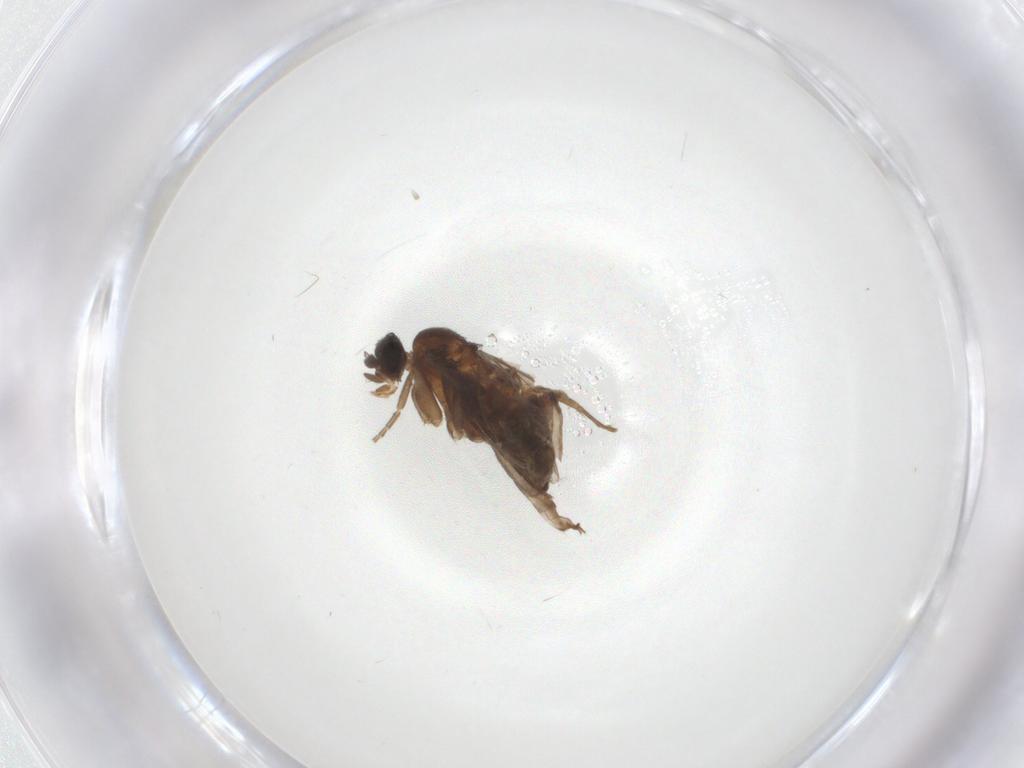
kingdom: Animalia
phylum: Arthropoda
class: Insecta
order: Diptera
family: Phoridae
